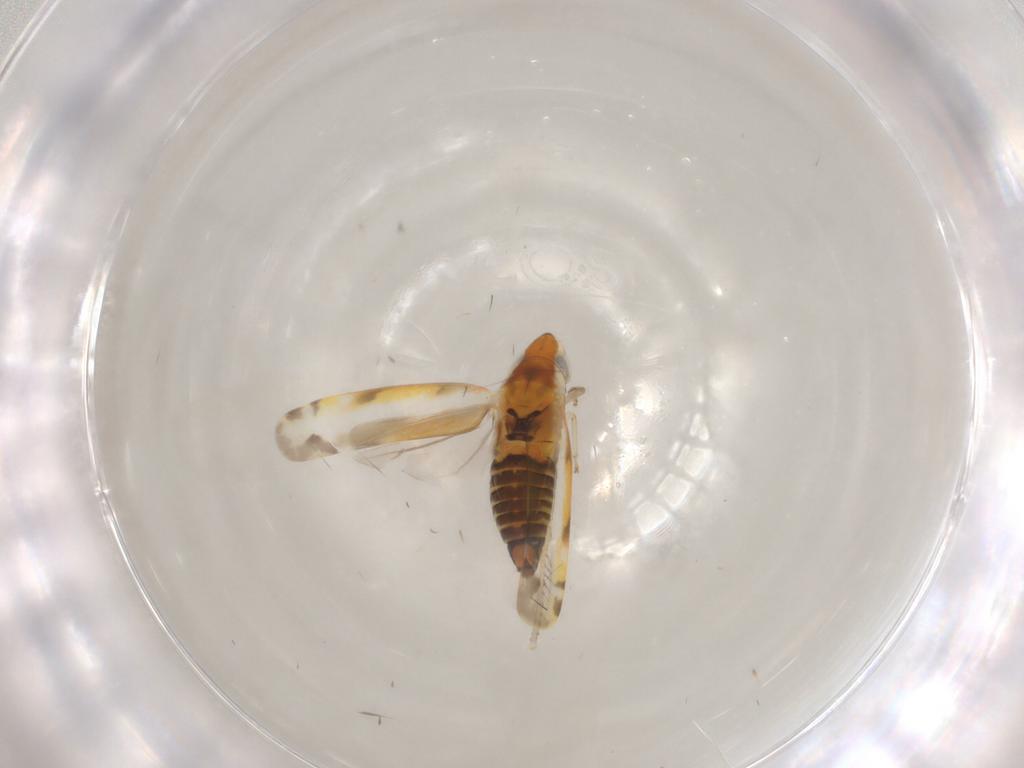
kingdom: Animalia
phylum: Arthropoda
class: Insecta
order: Hemiptera
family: Cicadellidae
